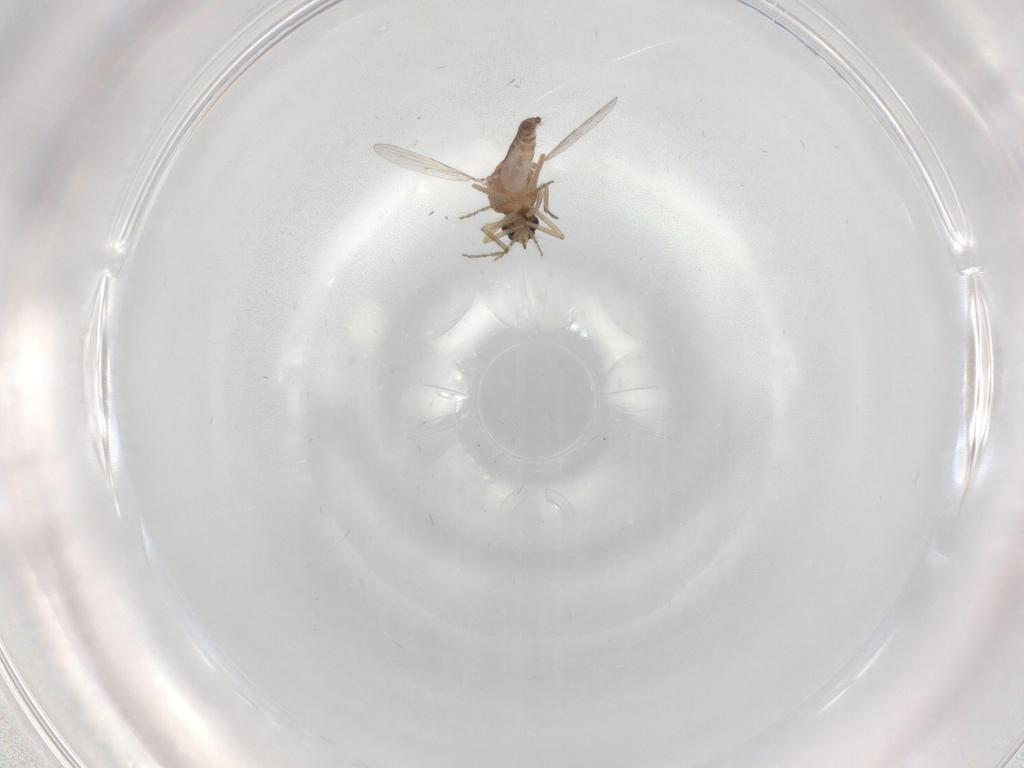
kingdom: Animalia
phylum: Arthropoda
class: Insecta
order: Diptera
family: Ceratopogonidae
